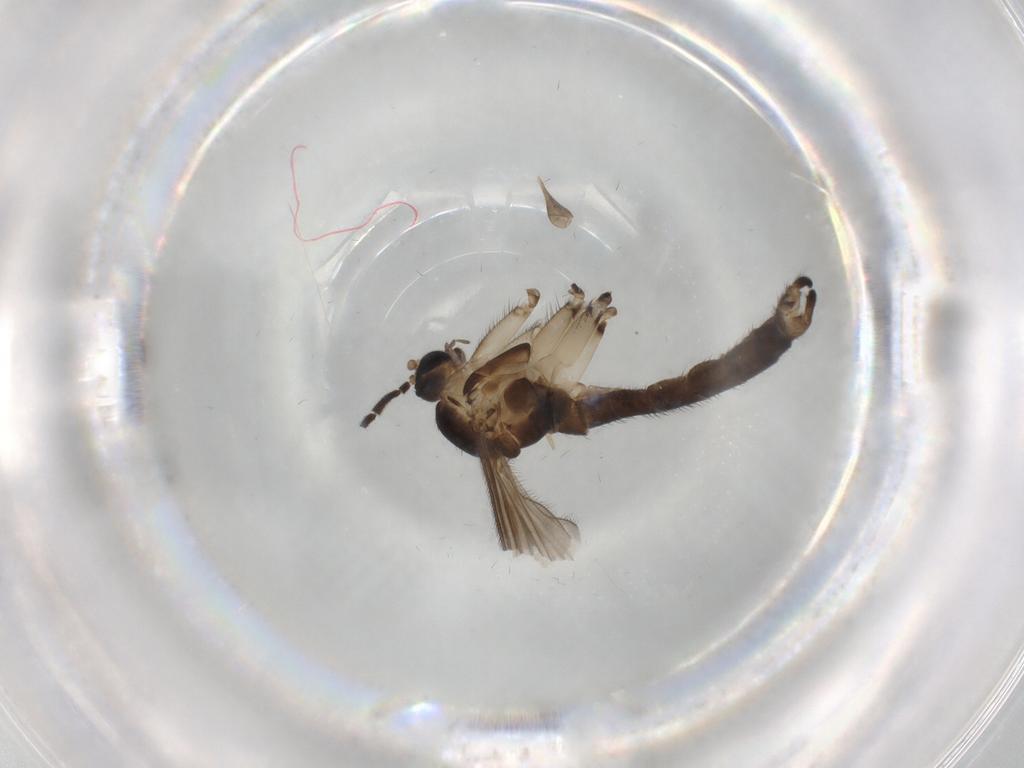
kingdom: Animalia
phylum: Arthropoda
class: Insecta
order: Diptera
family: Sciaridae
